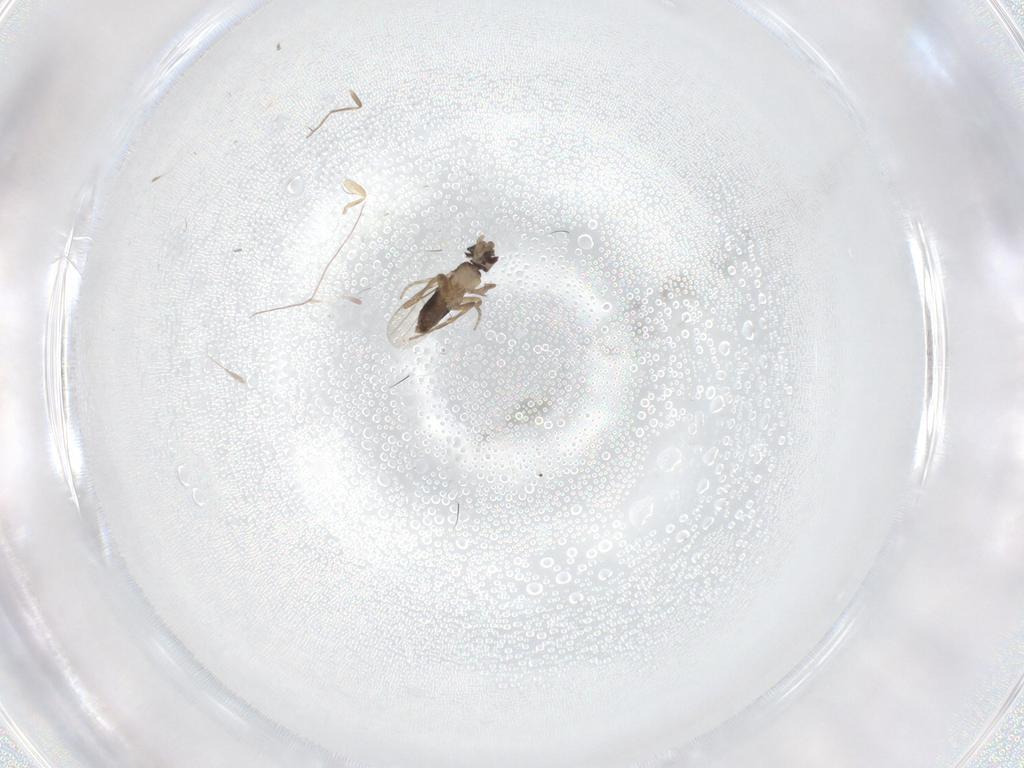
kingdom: Animalia
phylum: Arthropoda
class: Insecta
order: Diptera
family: Phoridae
